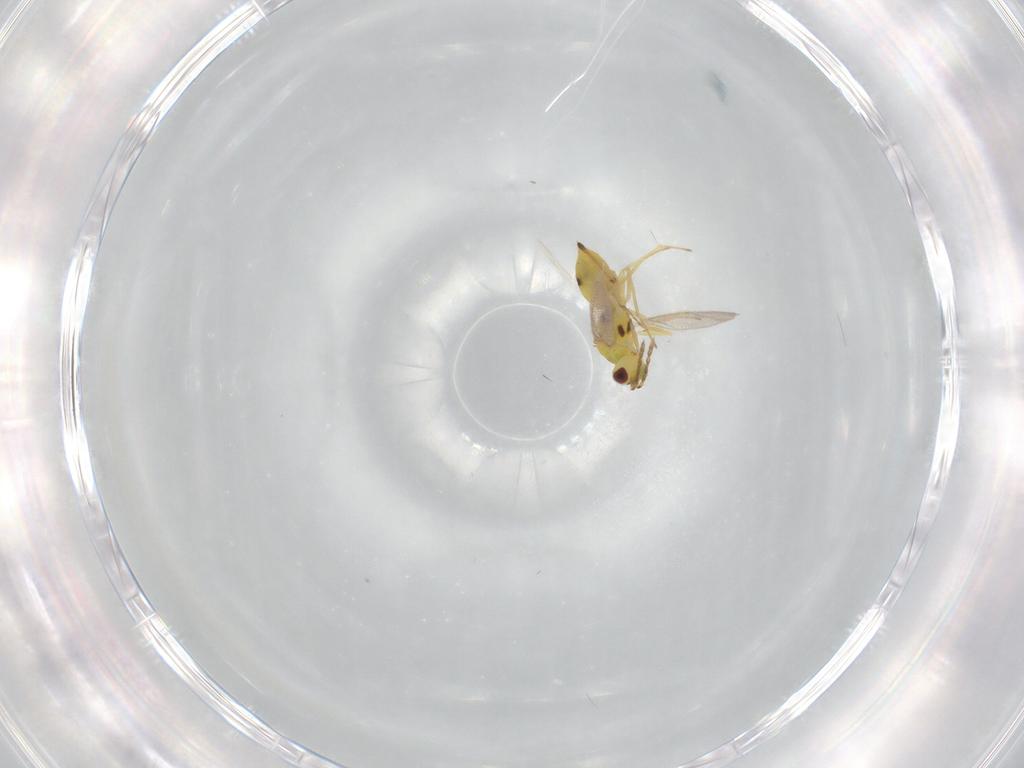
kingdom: Animalia
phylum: Arthropoda
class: Insecta
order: Hymenoptera
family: Eulophidae
